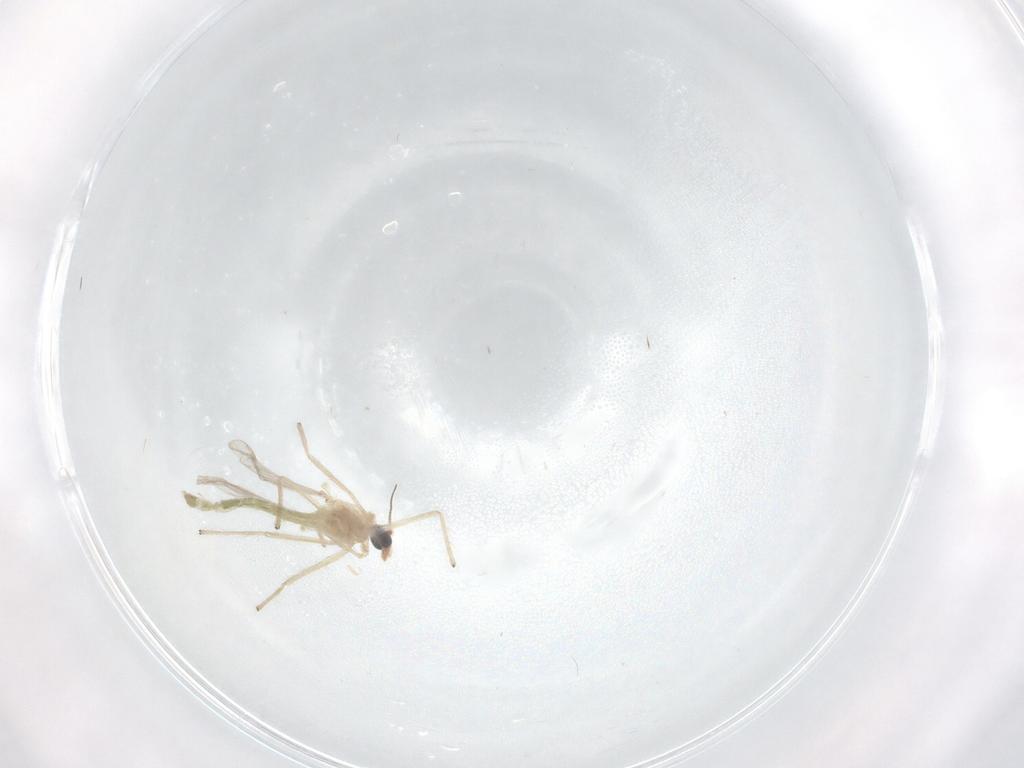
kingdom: Animalia
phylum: Arthropoda
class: Insecta
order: Diptera
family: Chironomidae
